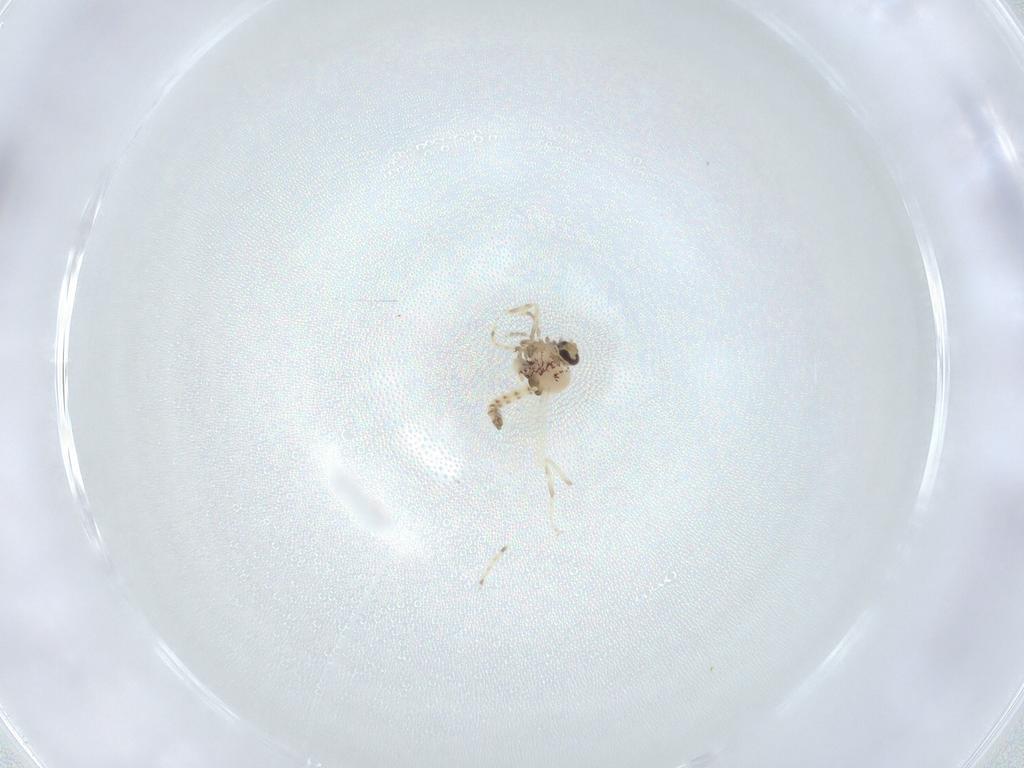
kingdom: Animalia
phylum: Arthropoda
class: Insecta
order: Diptera
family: Ceratopogonidae
